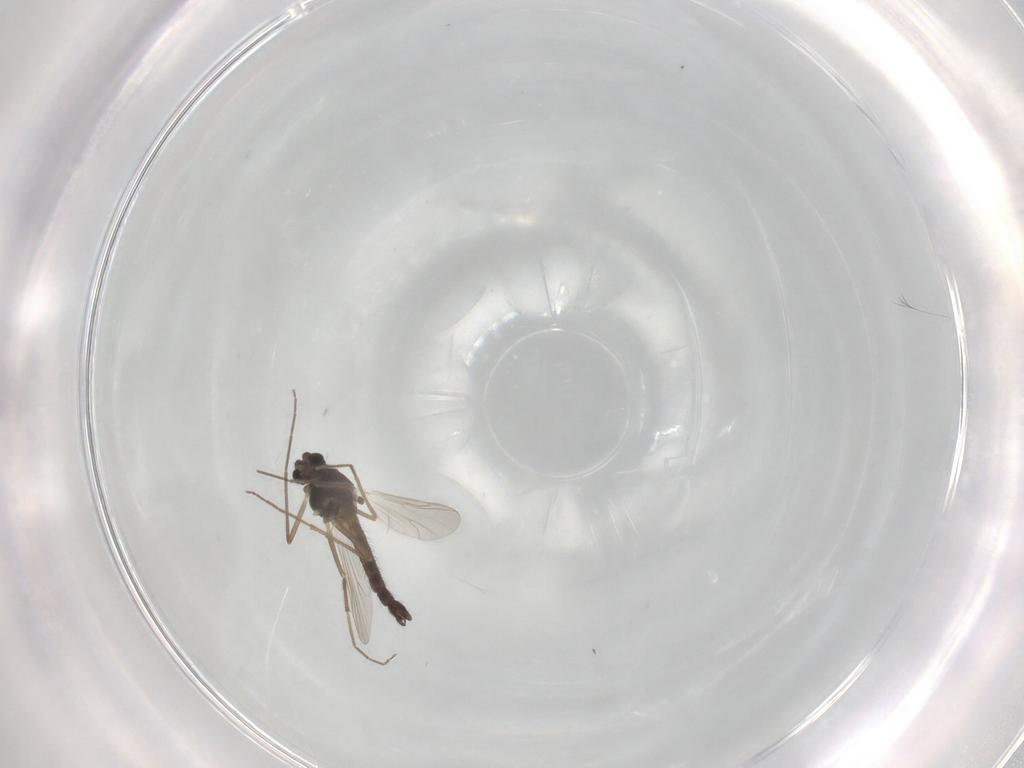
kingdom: Animalia
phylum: Arthropoda
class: Insecta
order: Diptera
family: Chironomidae
